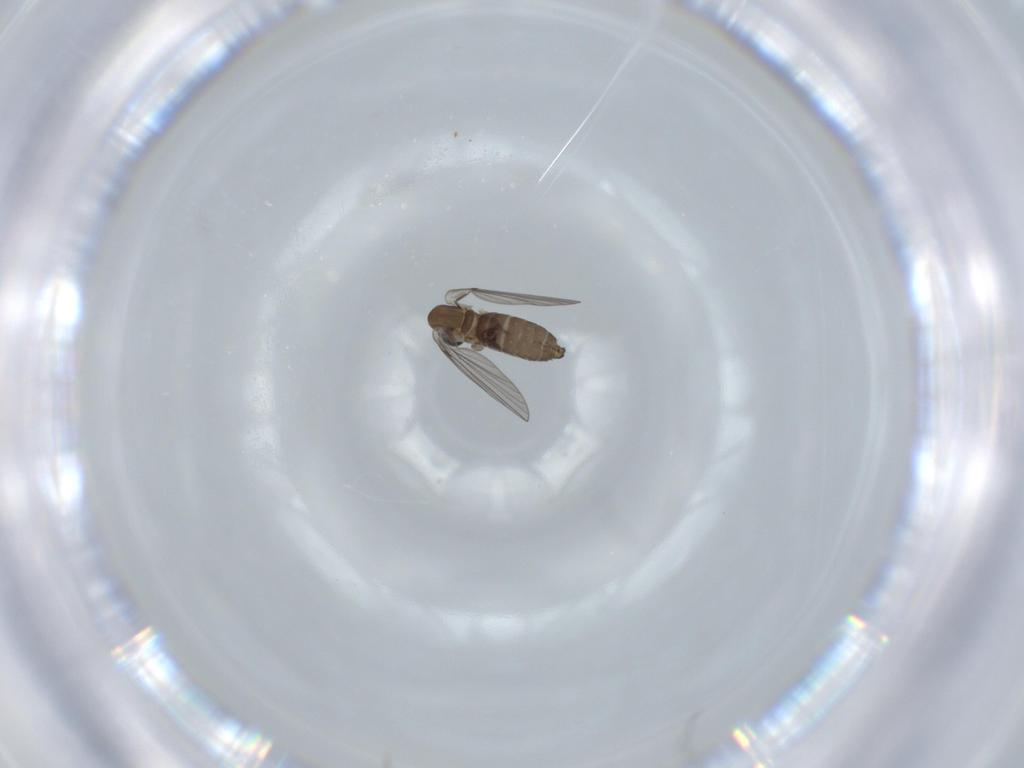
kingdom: Animalia
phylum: Arthropoda
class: Insecta
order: Diptera
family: Psychodidae
